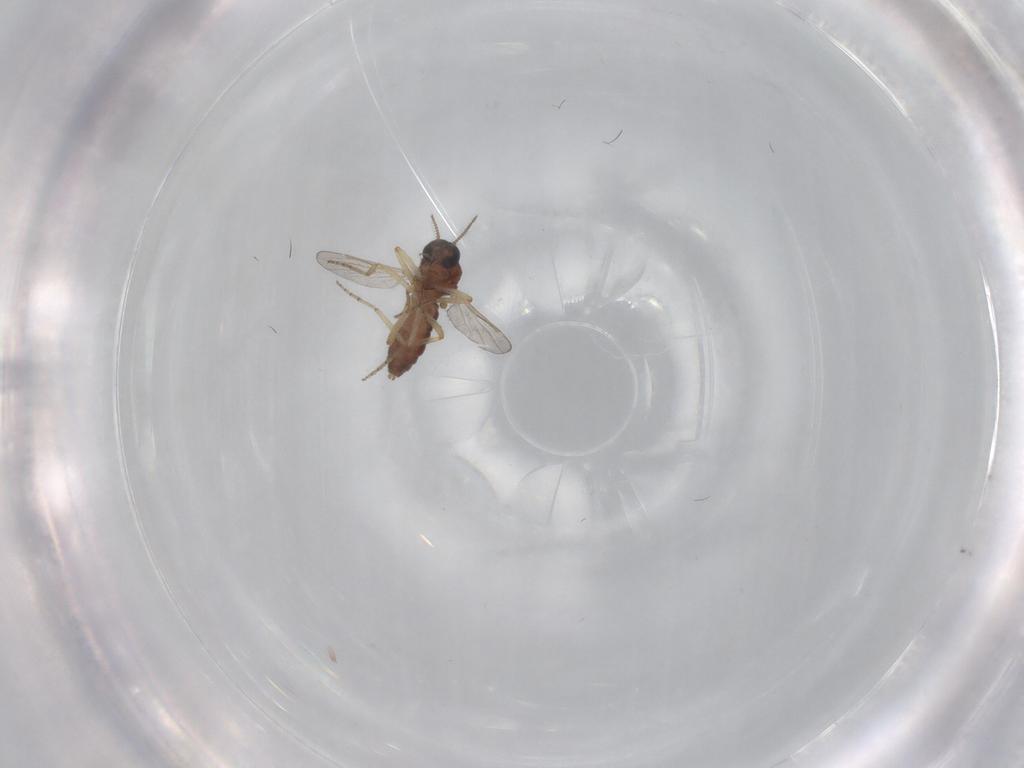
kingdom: Animalia
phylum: Arthropoda
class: Insecta
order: Diptera
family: Ceratopogonidae
